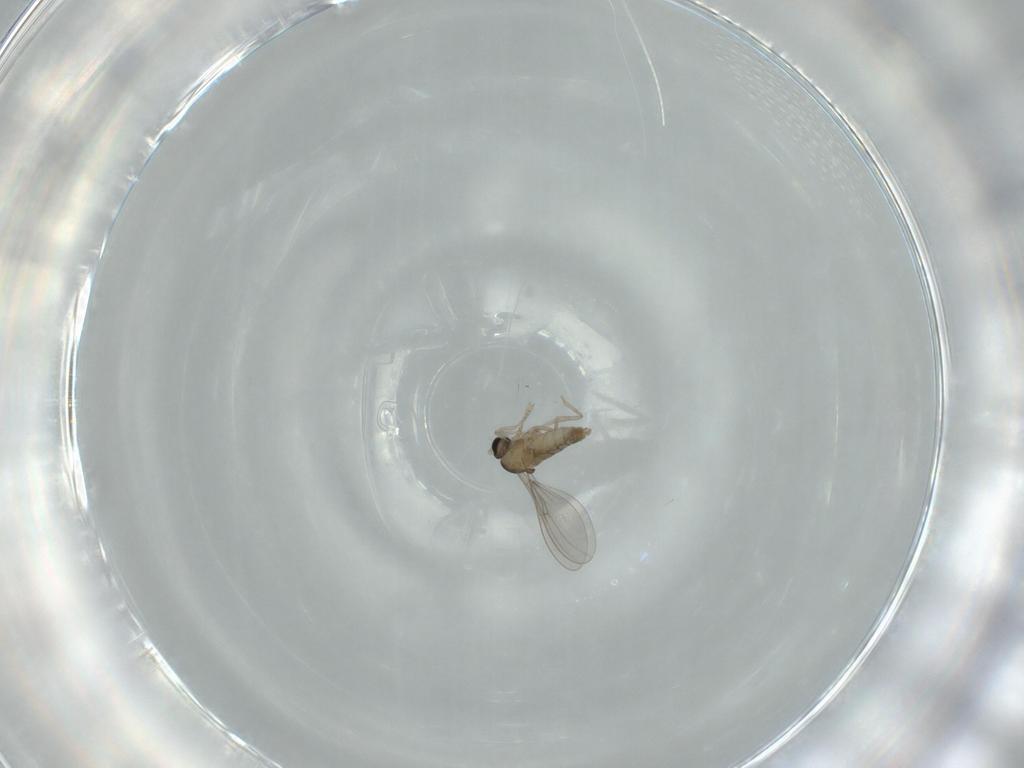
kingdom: Animalia
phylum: Arthropoda
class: Insecta
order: Diptera
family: Cecidomyiidae
